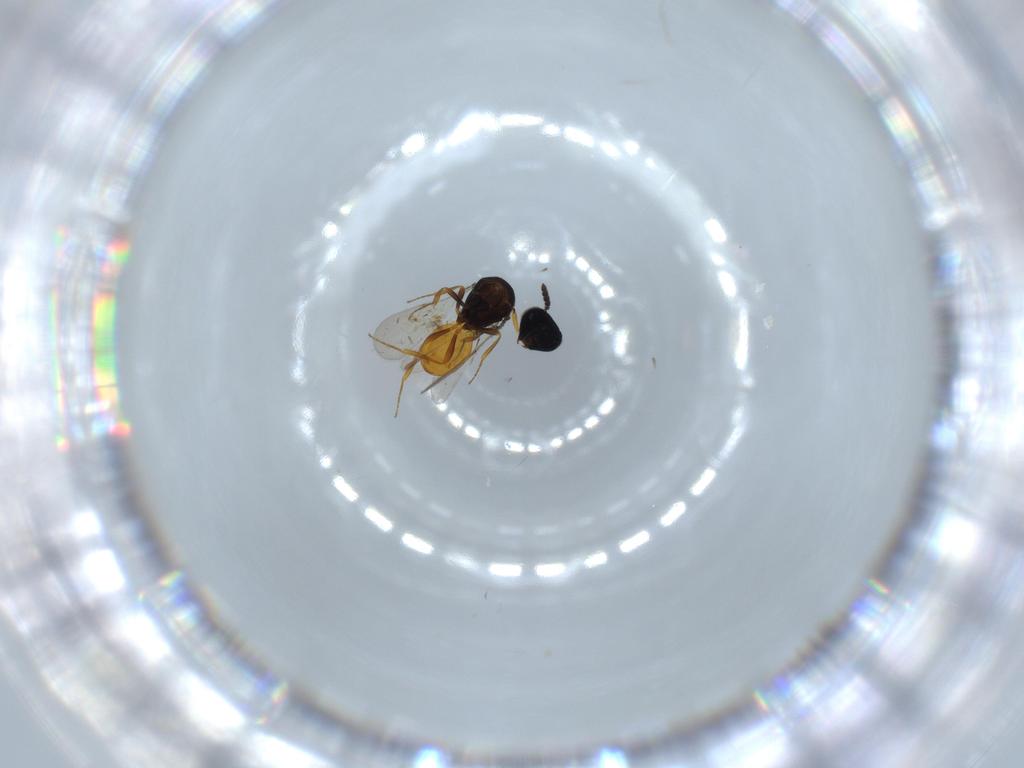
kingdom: Animalia
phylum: Arthropoda
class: Insecta
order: Hymenoptera
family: Scelionidae
